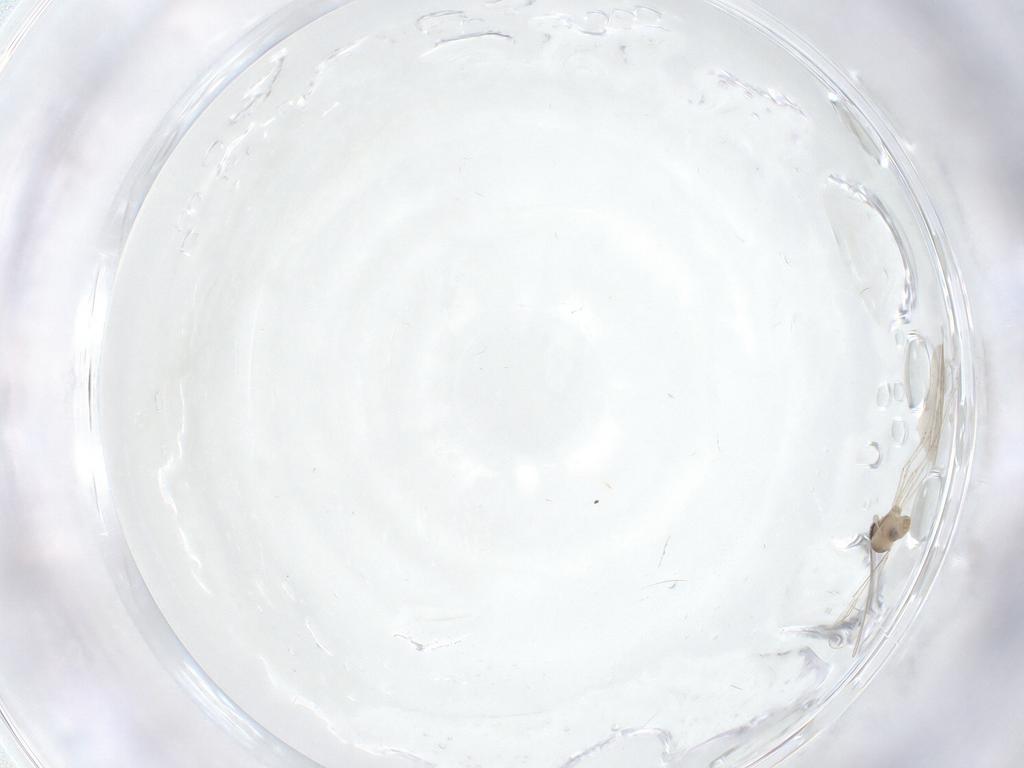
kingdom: Animalia
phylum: Arthropoda
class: Insecta
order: Diptera
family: Cecidomyiidae
